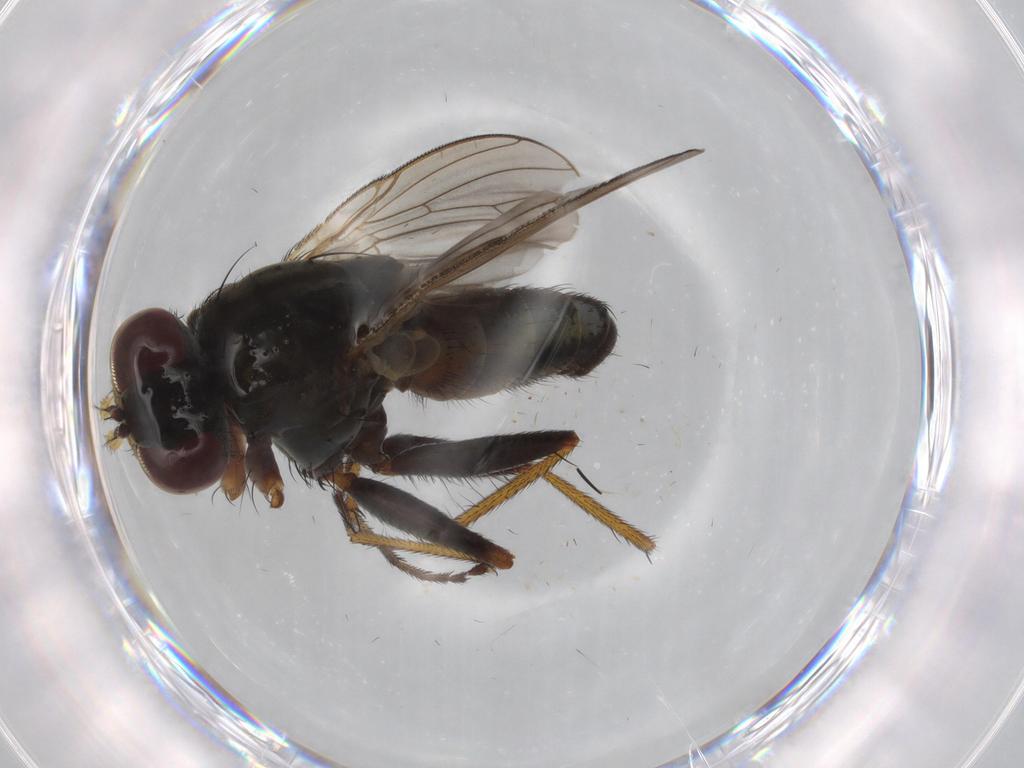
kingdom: Animalia
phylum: Arthropoda
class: Insecta
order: Diptera
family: Muscidae
